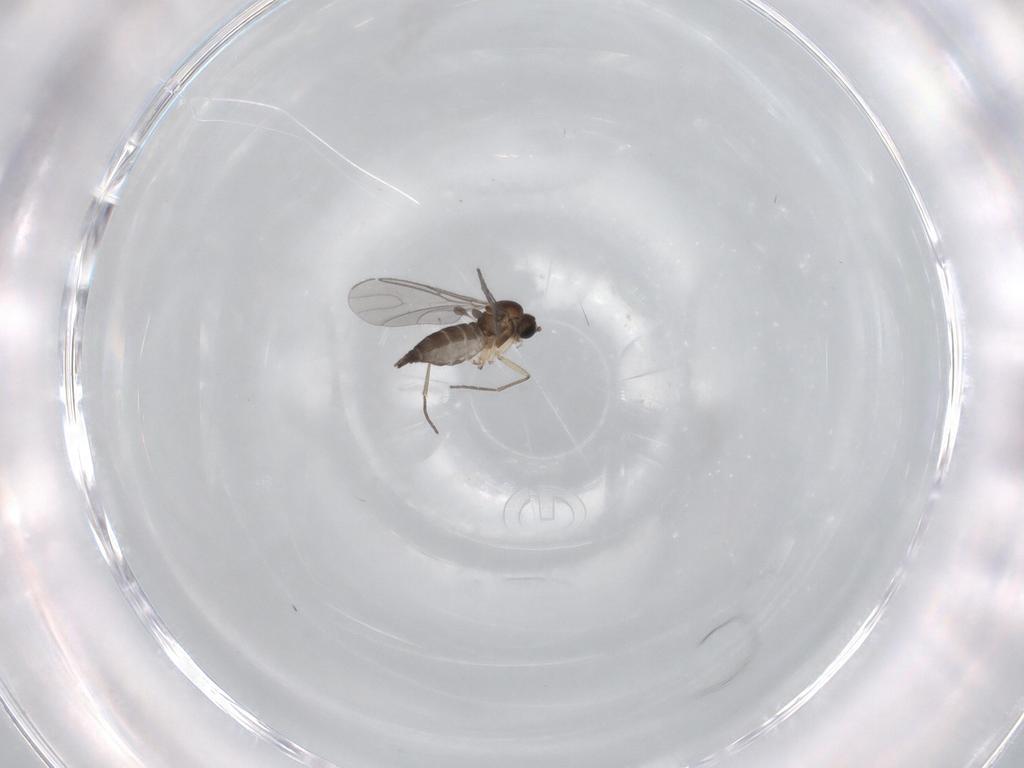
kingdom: Animalia
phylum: Arthropoda
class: Insecta
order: Diptera
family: Sciaridae
